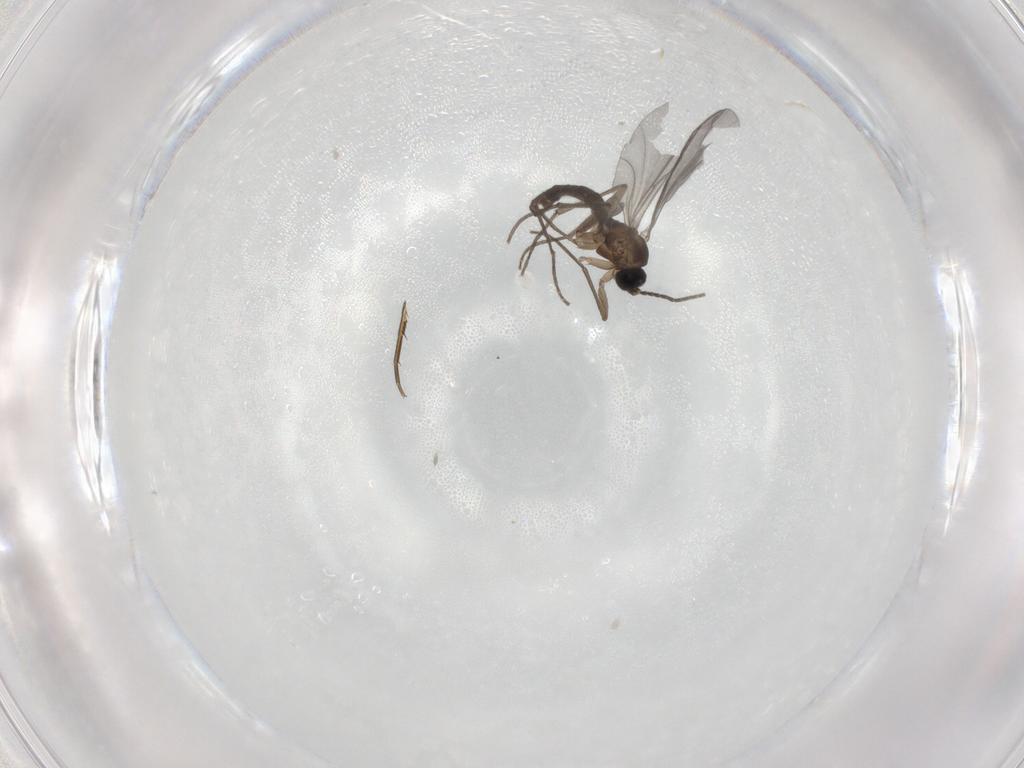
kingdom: Animalia
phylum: Arthropoda
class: Insecta
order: Diptera
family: Sciaridae
